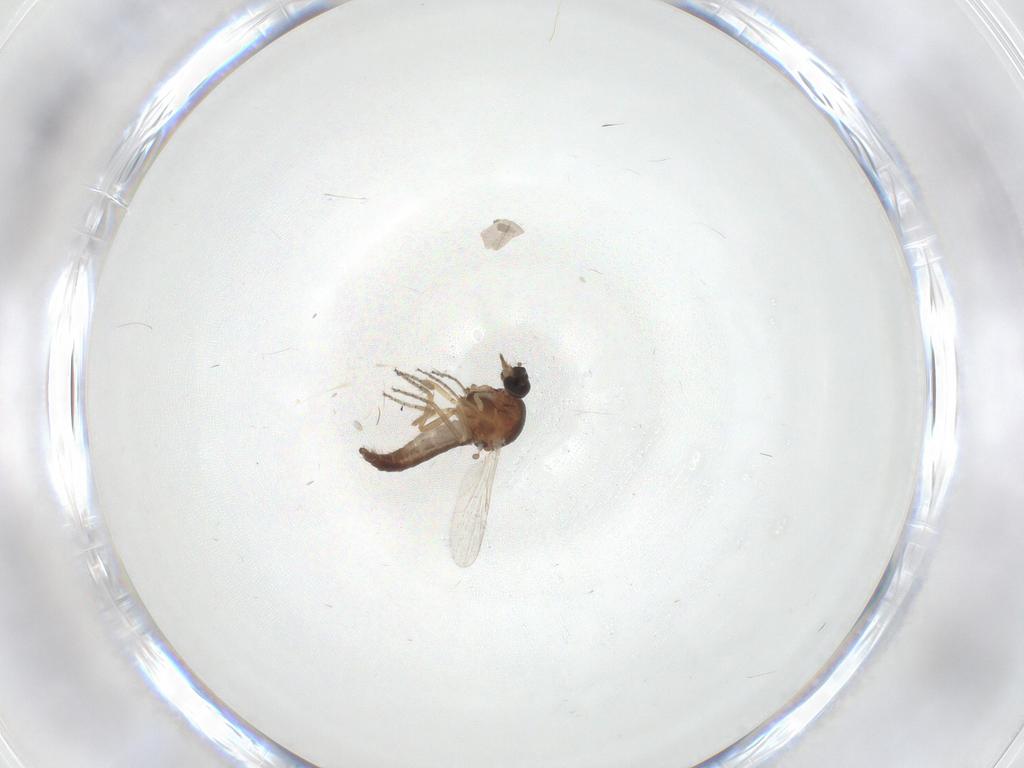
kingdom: Animalia
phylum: Arthropoda
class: Insecta
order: Diptera
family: Ceratopogonidae
